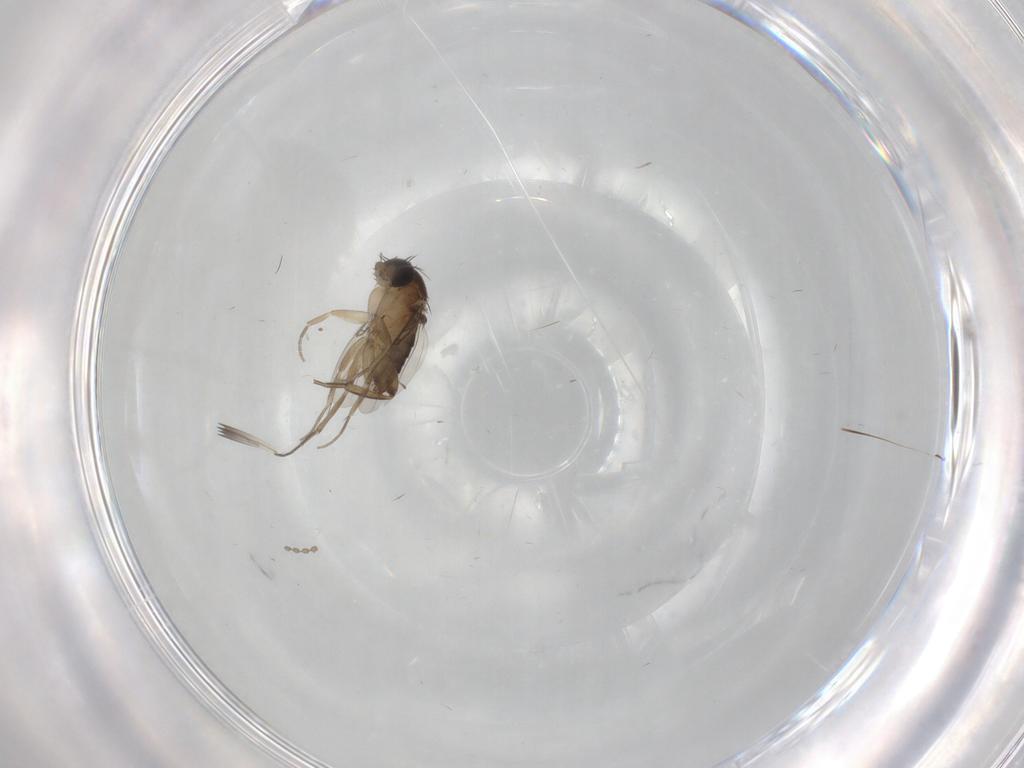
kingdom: Animalia
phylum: Arthropoda
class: Insecta
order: Diptera
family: Phoridae
